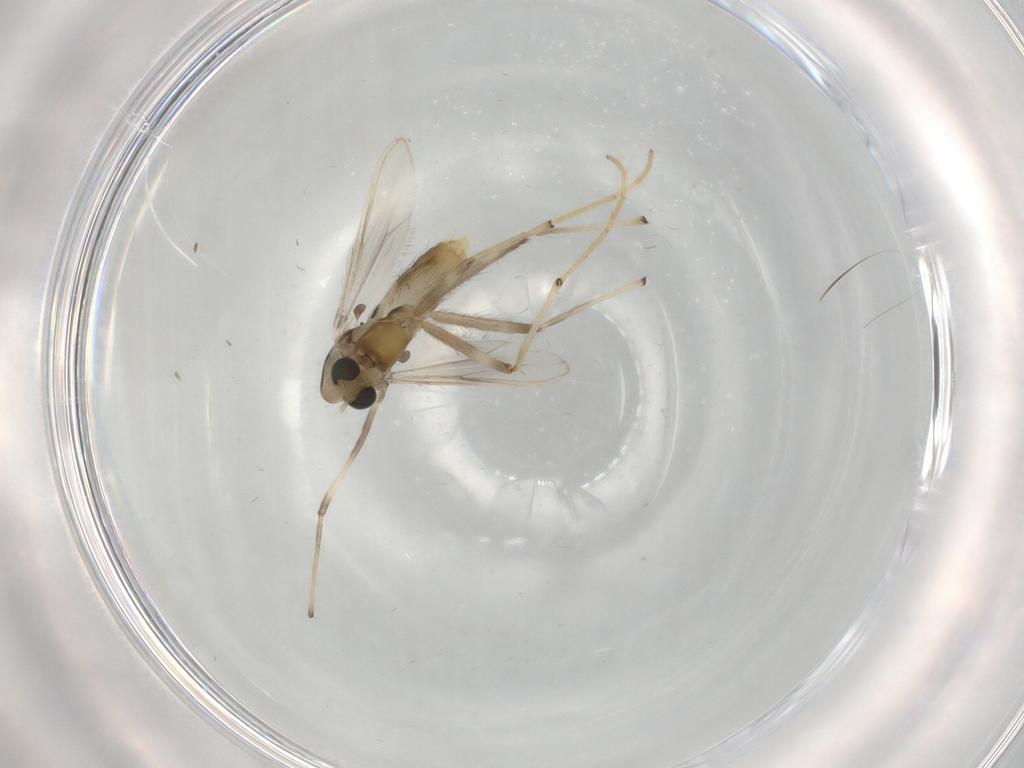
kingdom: Animalia
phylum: Arthropoda
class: Insecta
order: Diptera
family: Chironomidae
